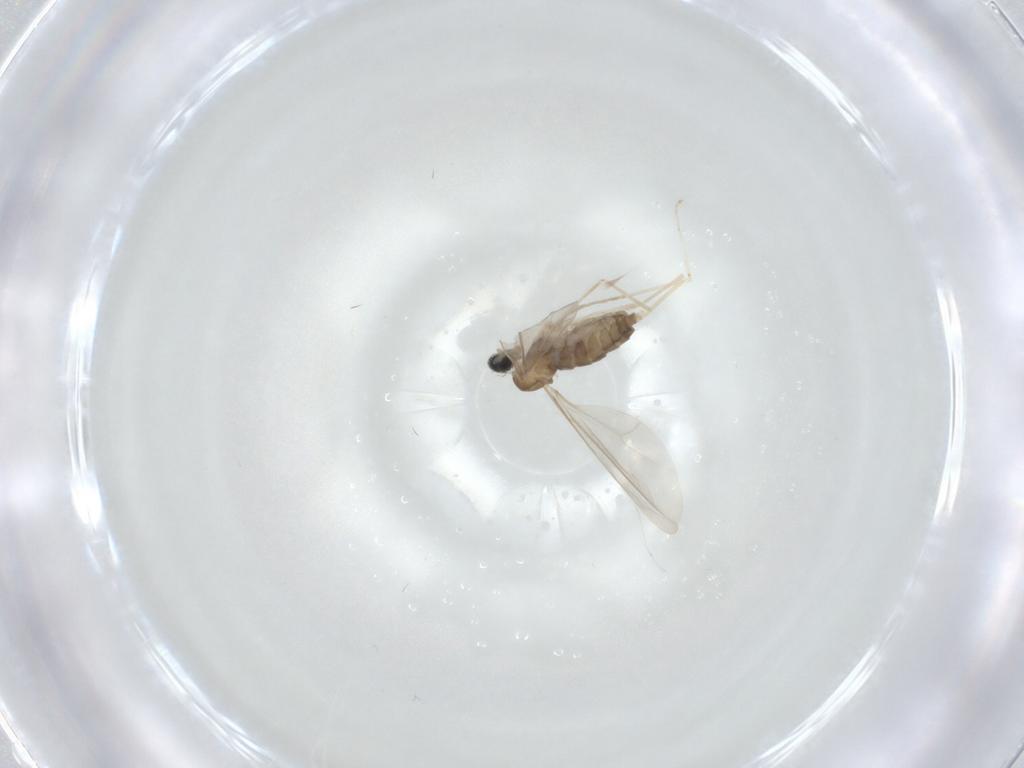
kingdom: Animalia
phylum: Arthropoda
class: Insecta
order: Diptera
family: Cecidomyiidae
